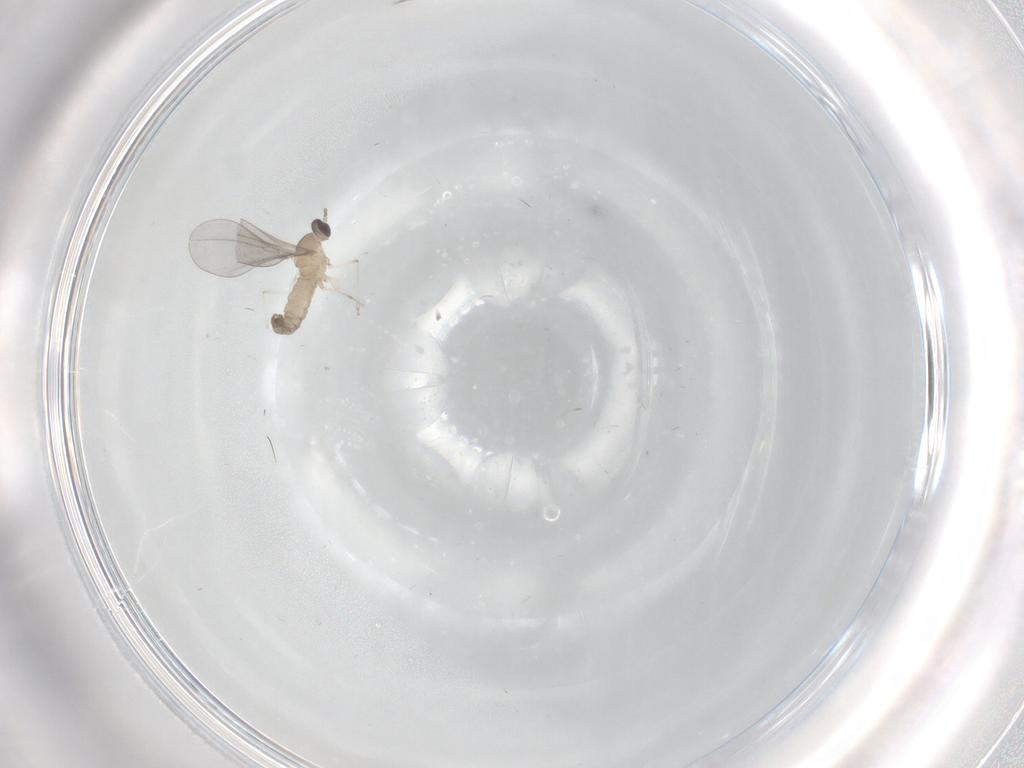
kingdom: Animalia
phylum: Arthropoda
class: Insecta
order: Diptera
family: Cecidomyiidae
